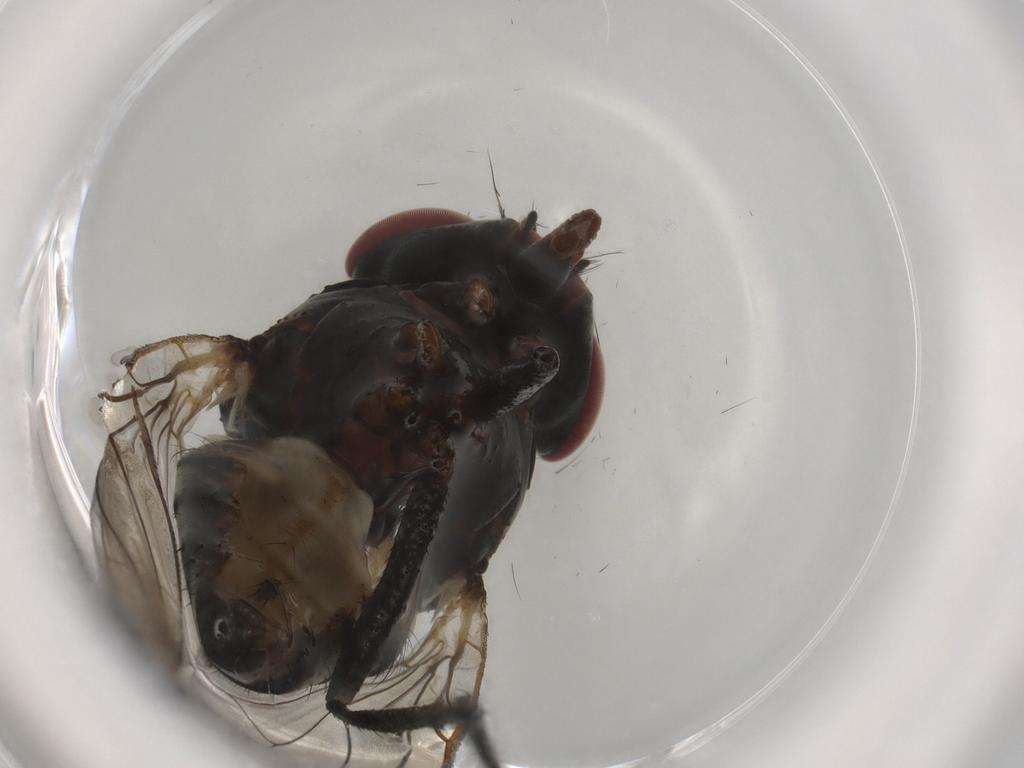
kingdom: Animalia
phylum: Arthropoda
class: Insecta
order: Diptera
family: Anthomyiidae
